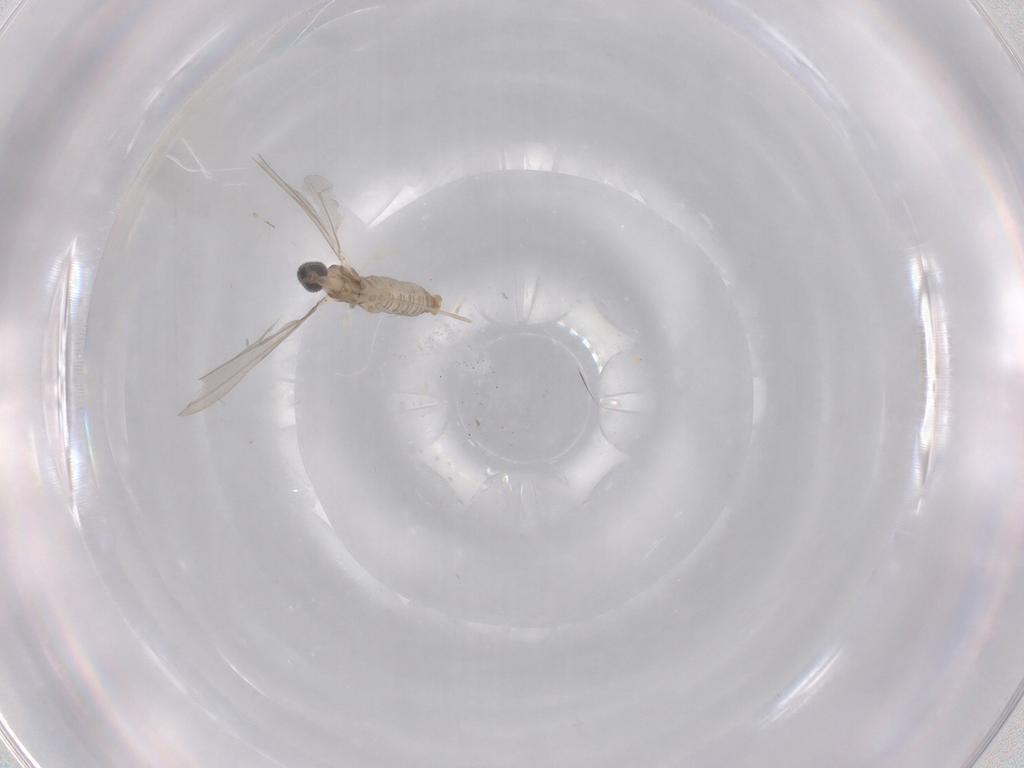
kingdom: Animalia
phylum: Arthropoda
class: Insecta
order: Diptera
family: Cecidomyiidae
